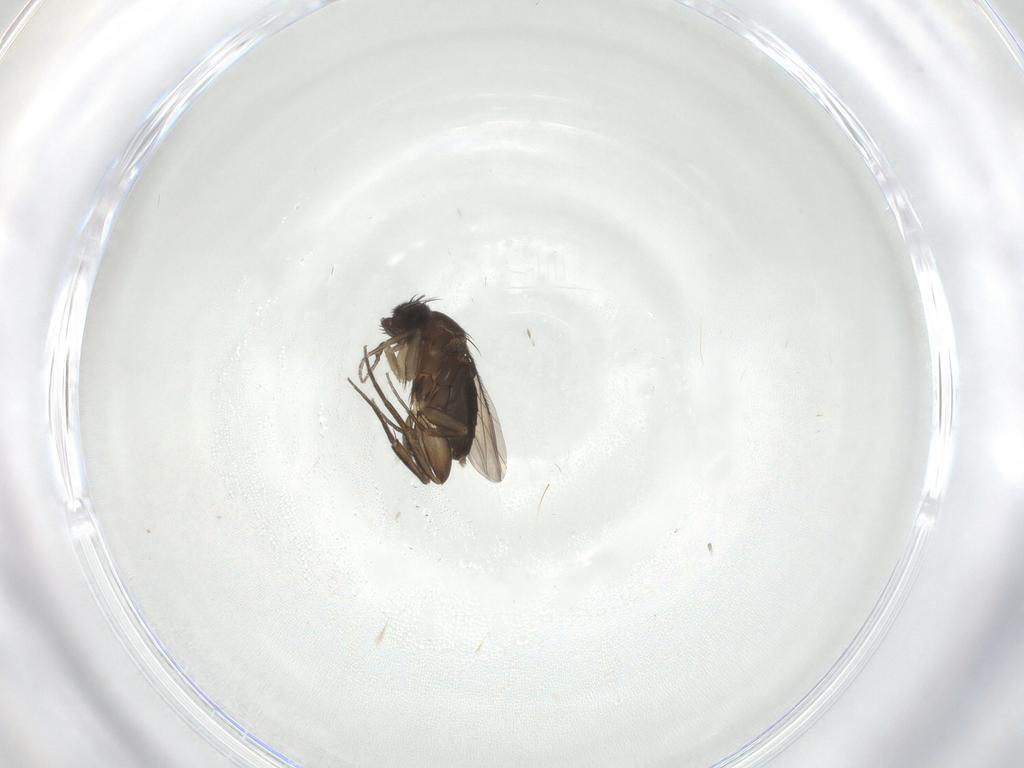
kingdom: Animalia
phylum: Arthropoda
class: Insecta
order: Diptera
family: Phoridae
